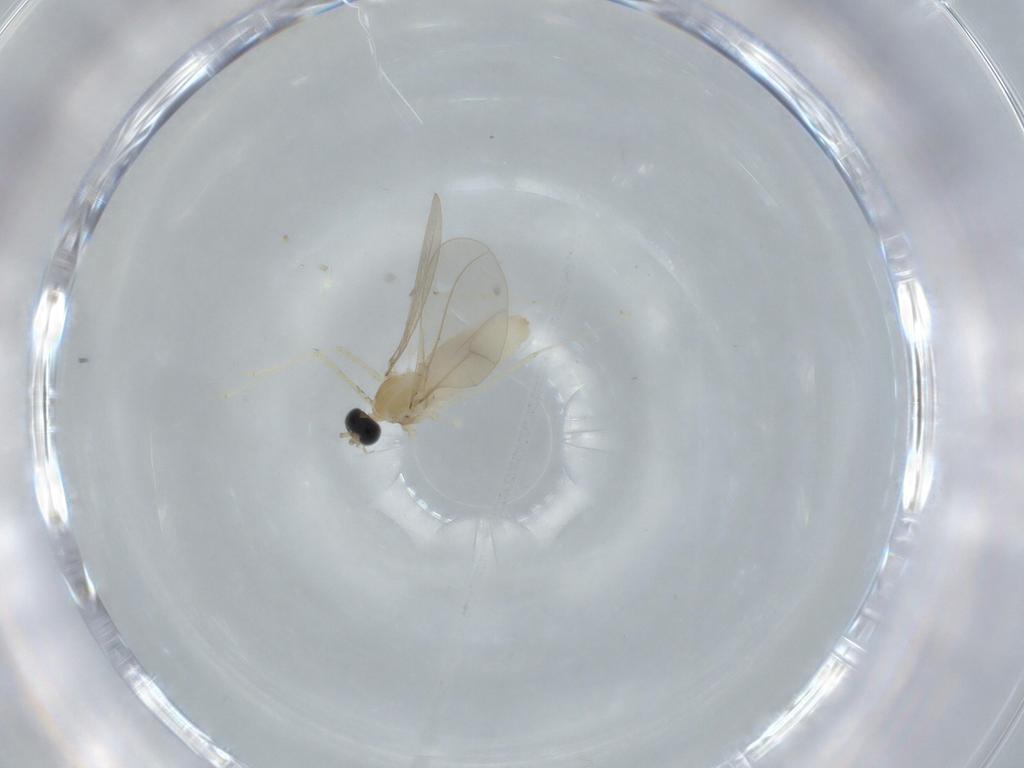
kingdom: Animalia
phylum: Arthropoda
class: Insecta
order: Diptera
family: Cecidomyiidae
